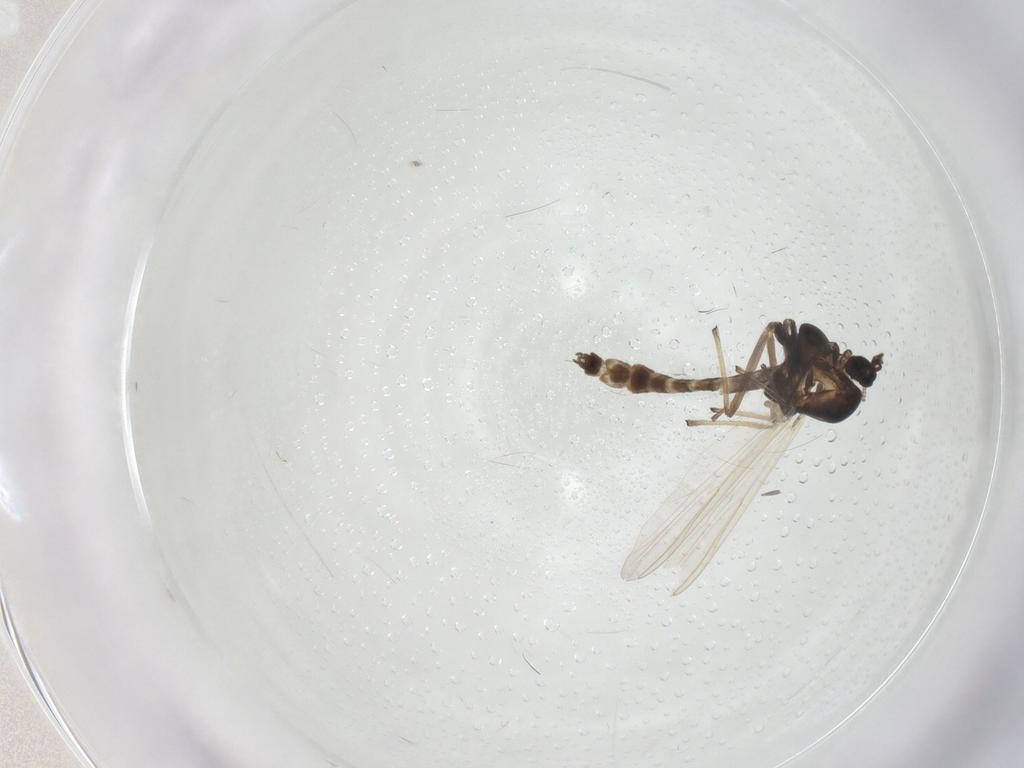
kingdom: Animalia
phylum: Arthropoda
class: Insecta
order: Diptera
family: Chironomidae
